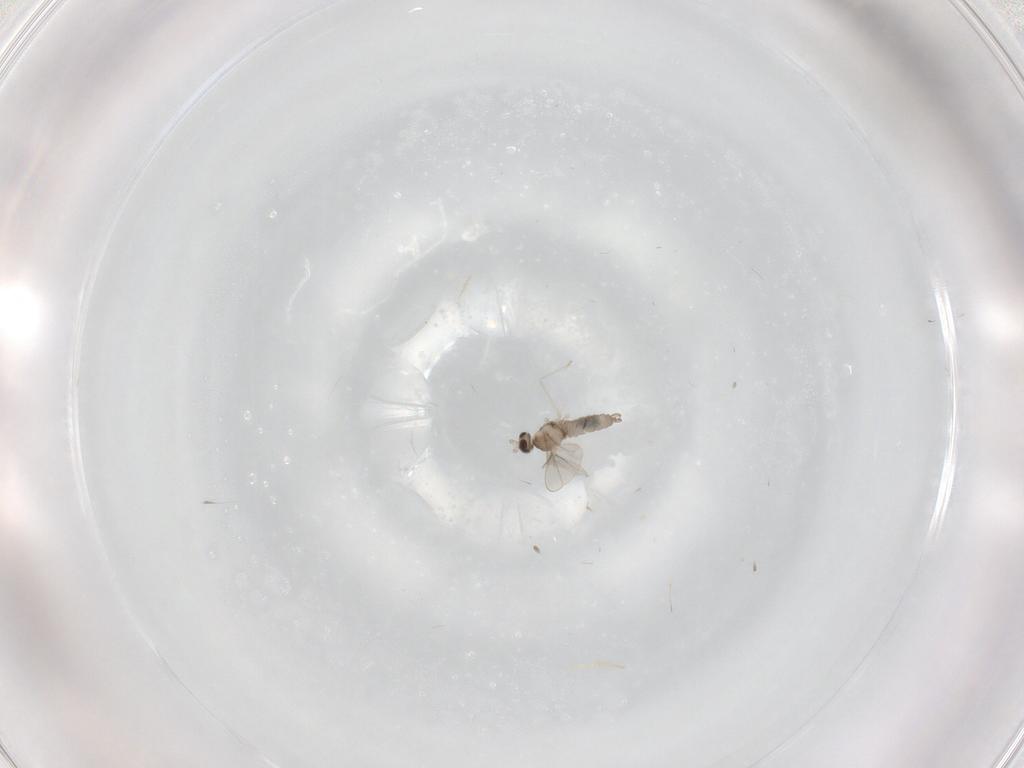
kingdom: Animalia
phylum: Arthropoda
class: Insecta
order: Diptera
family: Cecidomyiidae
